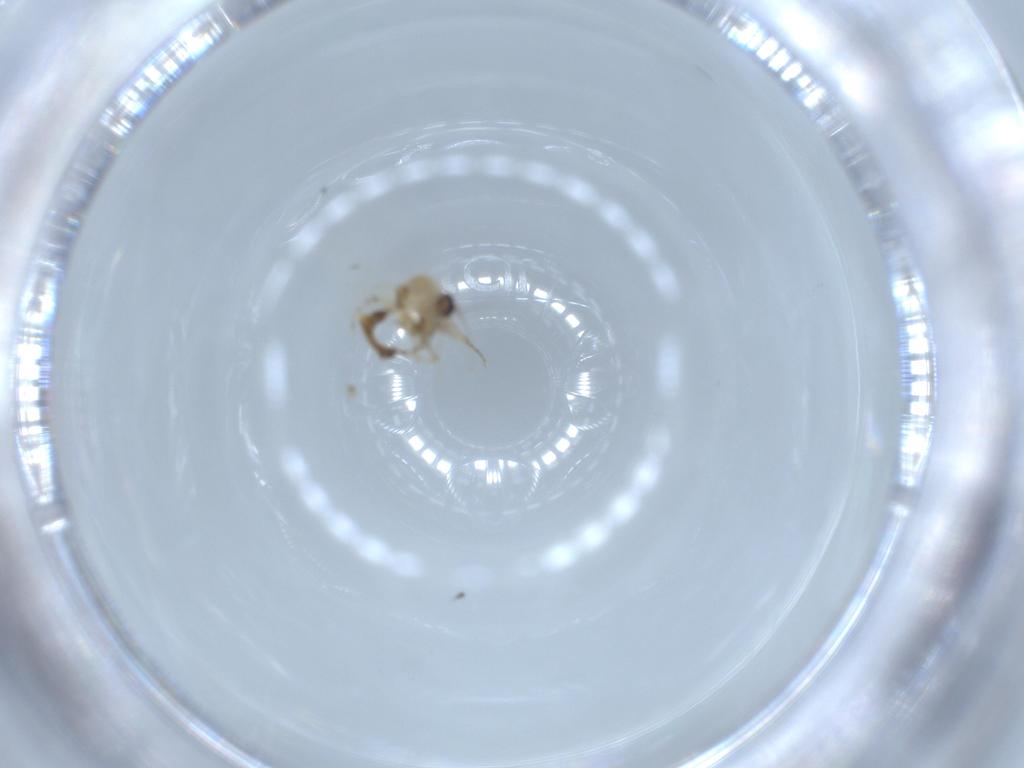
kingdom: Animalia
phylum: Arthropoda
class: Insecta
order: Diptera
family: Ceratopogonidae
